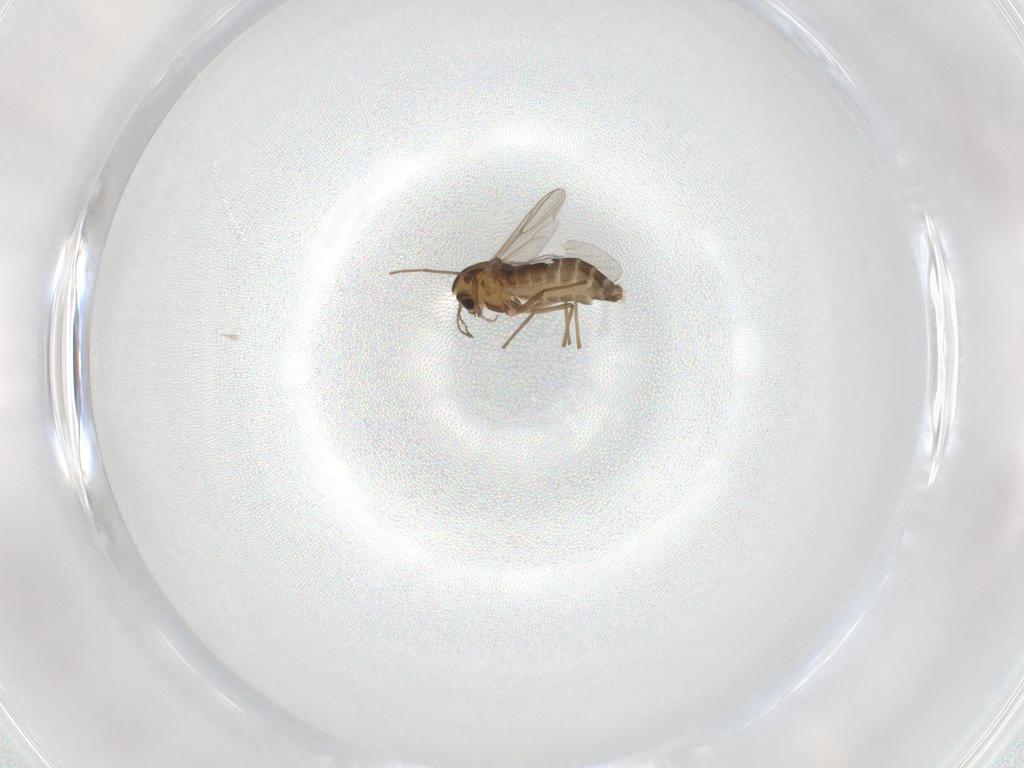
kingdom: Animalia
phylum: Arthropoda
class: Insecta
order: Diptera
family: Chironomidae
